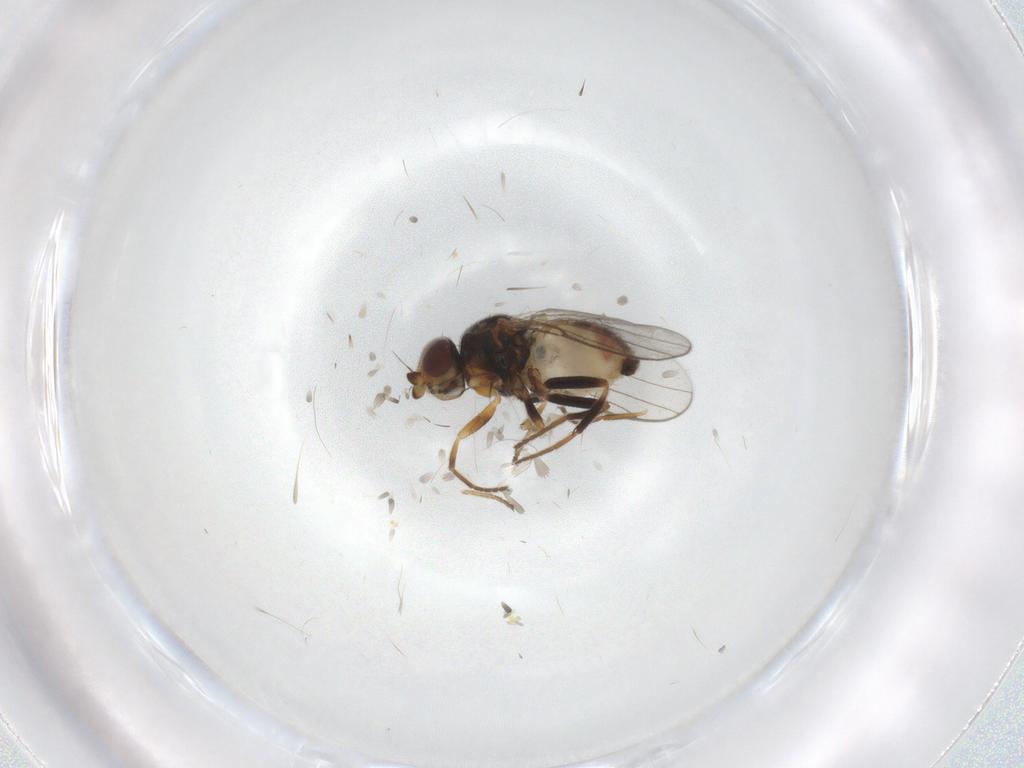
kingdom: Animalia
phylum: Arthropoda
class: Insecta
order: Diptera
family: Chloropidae
